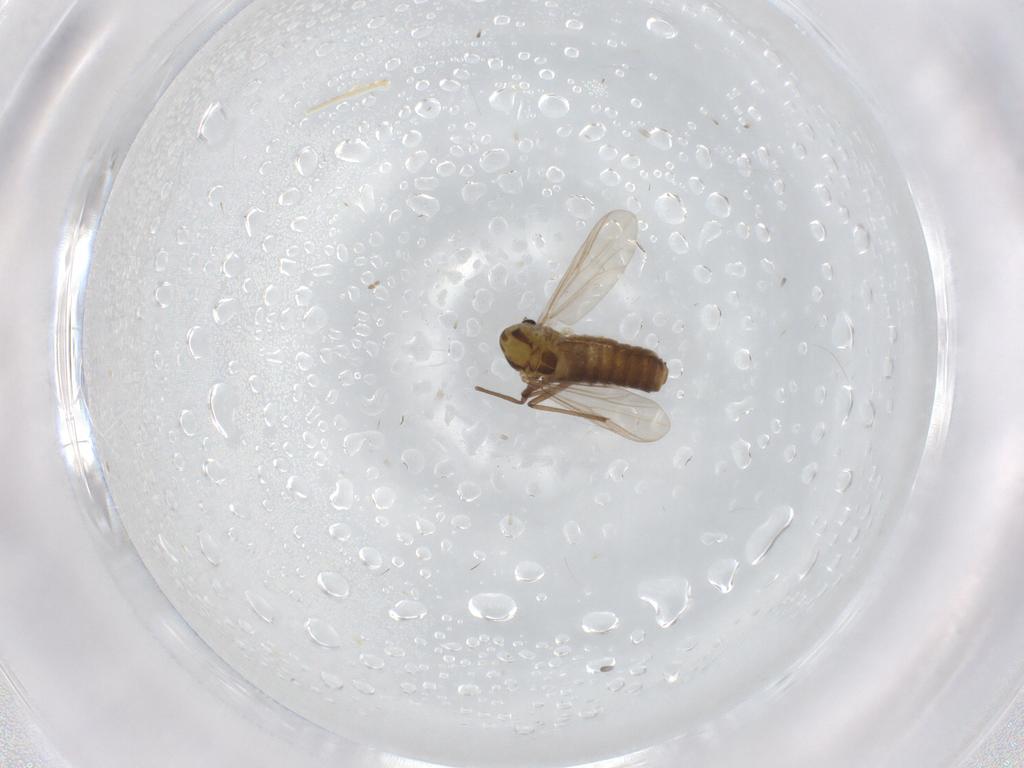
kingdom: Animalia
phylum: Arthropoda
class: Insecta
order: Diptera
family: Chironomidae
